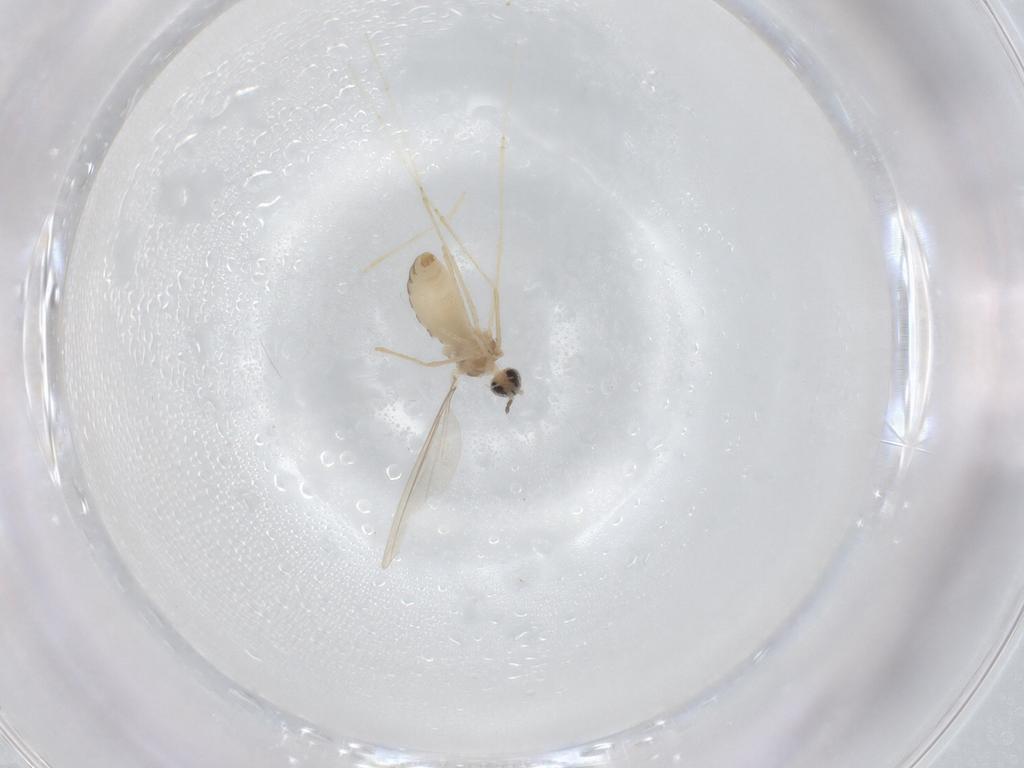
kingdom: Animalia
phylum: Arthropoda
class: Insecta
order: Diptera
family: Cecidomyiidae
